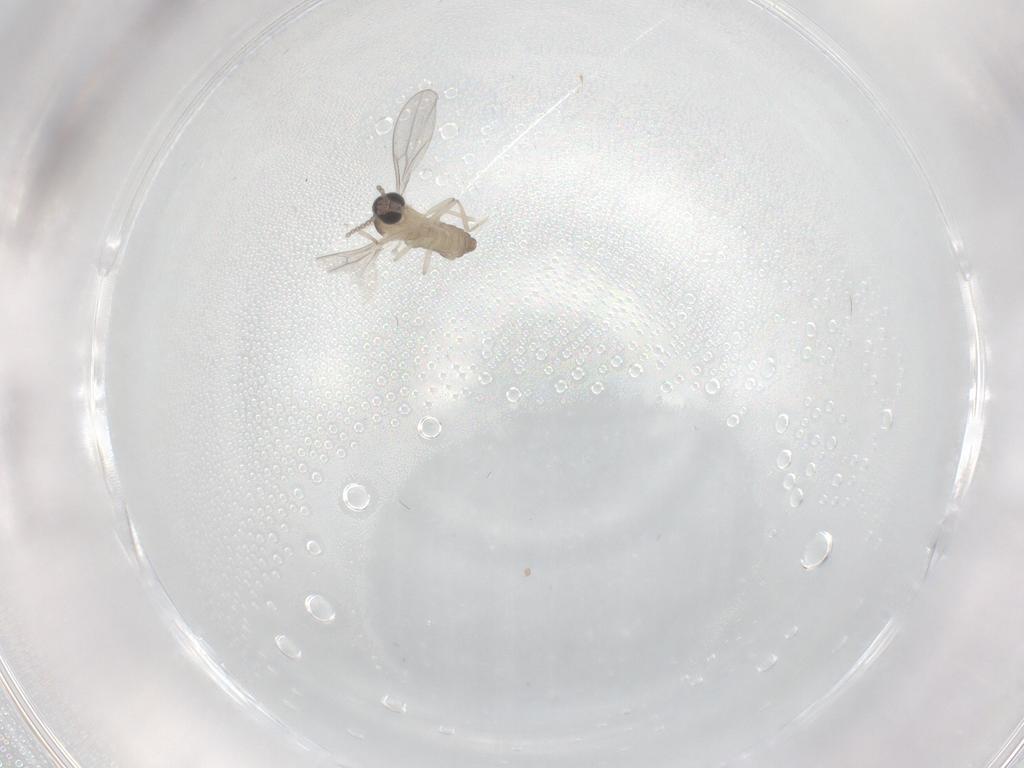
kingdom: Animalia
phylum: Arthropoda
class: Insecta
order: Diptera
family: Cecidomyiidae
